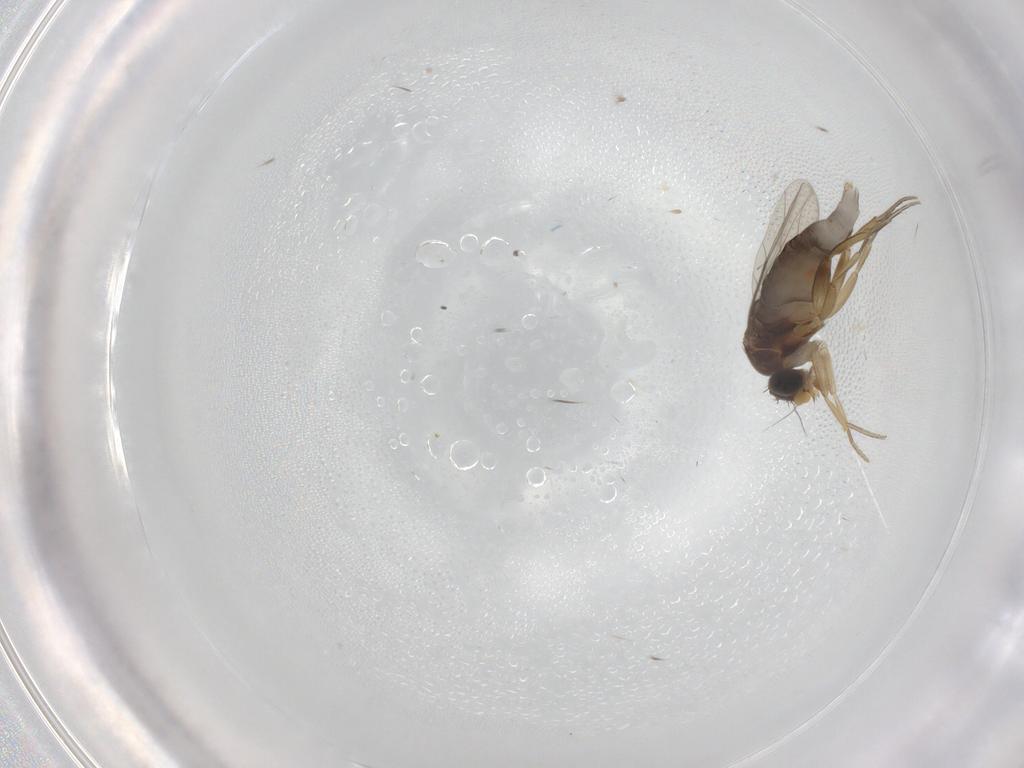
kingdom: Animalia
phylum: Arthropoda
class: Insecta
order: Diptera
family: Phoridae
